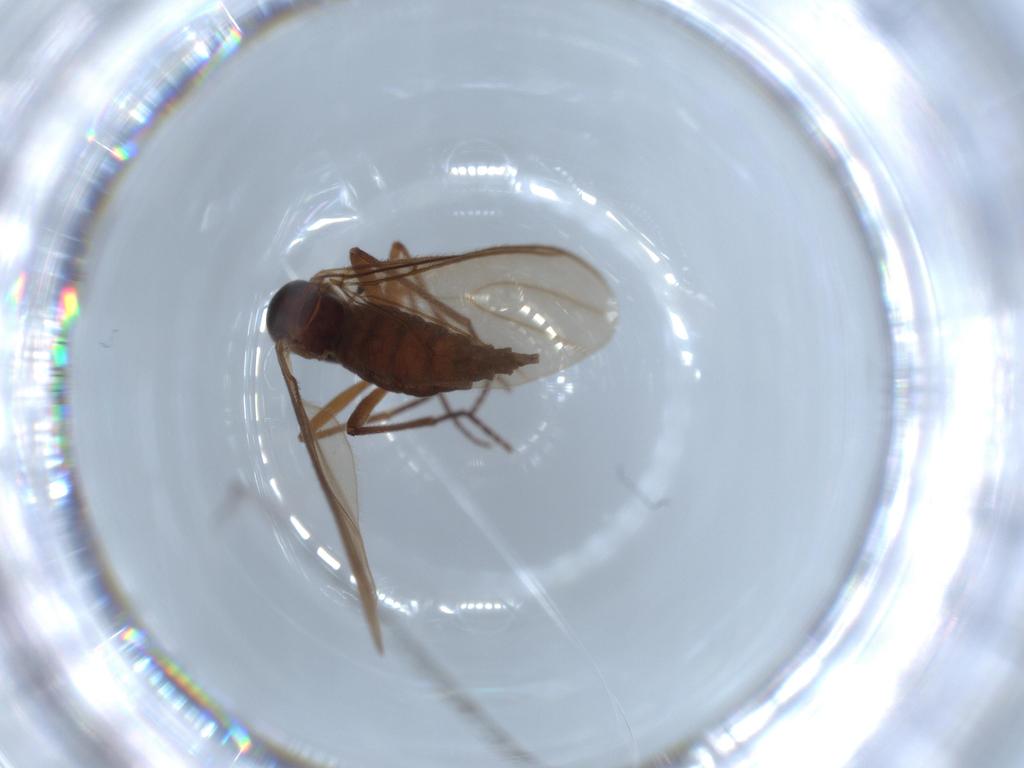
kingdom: Animalia
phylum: Arthropoda
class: Insecta
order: Diptera
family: Sciaridae
